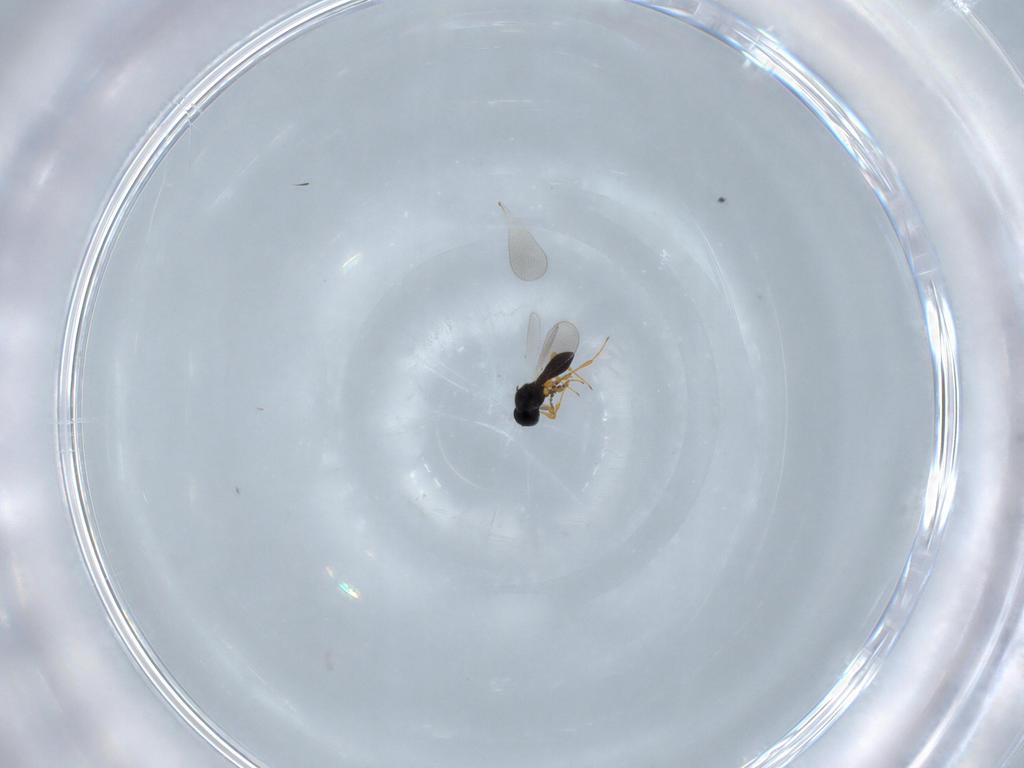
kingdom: Animalia
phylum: Arthropoda
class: Insecta
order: Hymenoptera
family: Platygastridae
